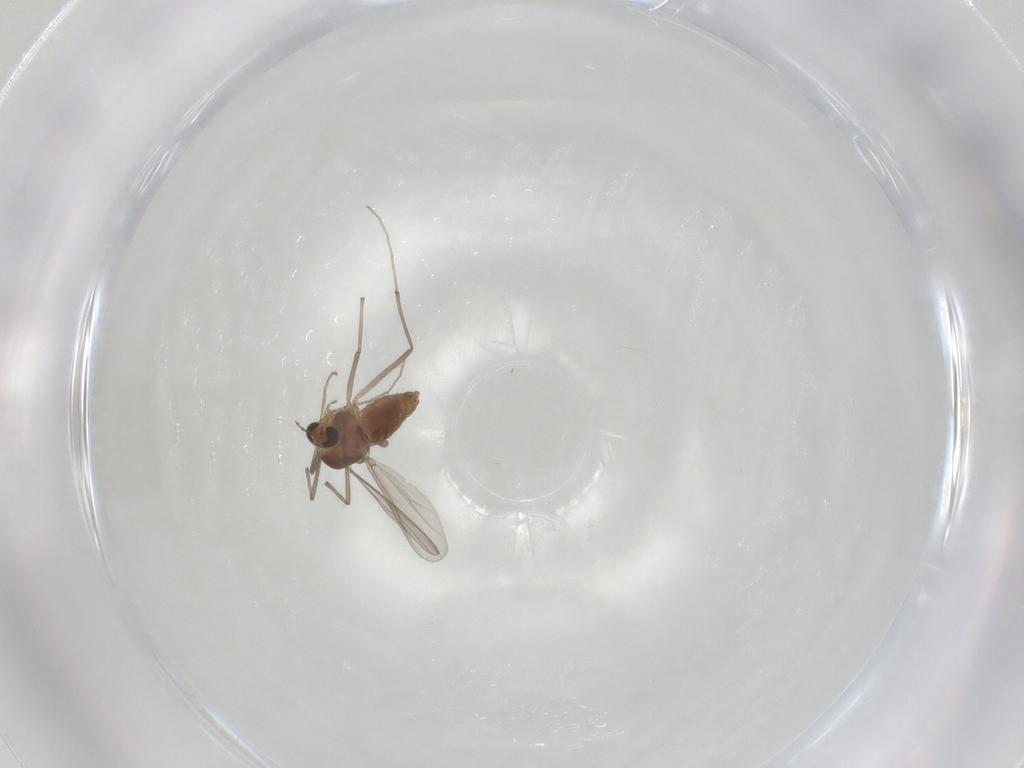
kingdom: Animalia
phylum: Arthropoda
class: Insecta
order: Diptera
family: Chironomidae
